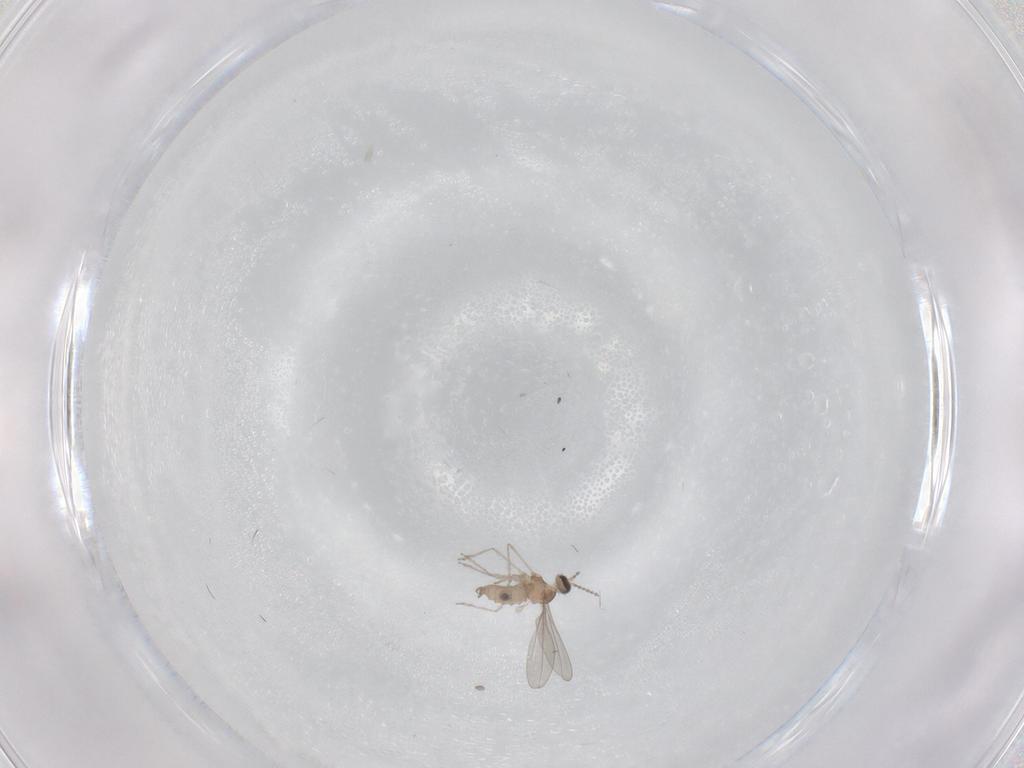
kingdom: Animalia
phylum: Arthropoda
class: Insecta
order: Diptera
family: Cecidomyiidae
